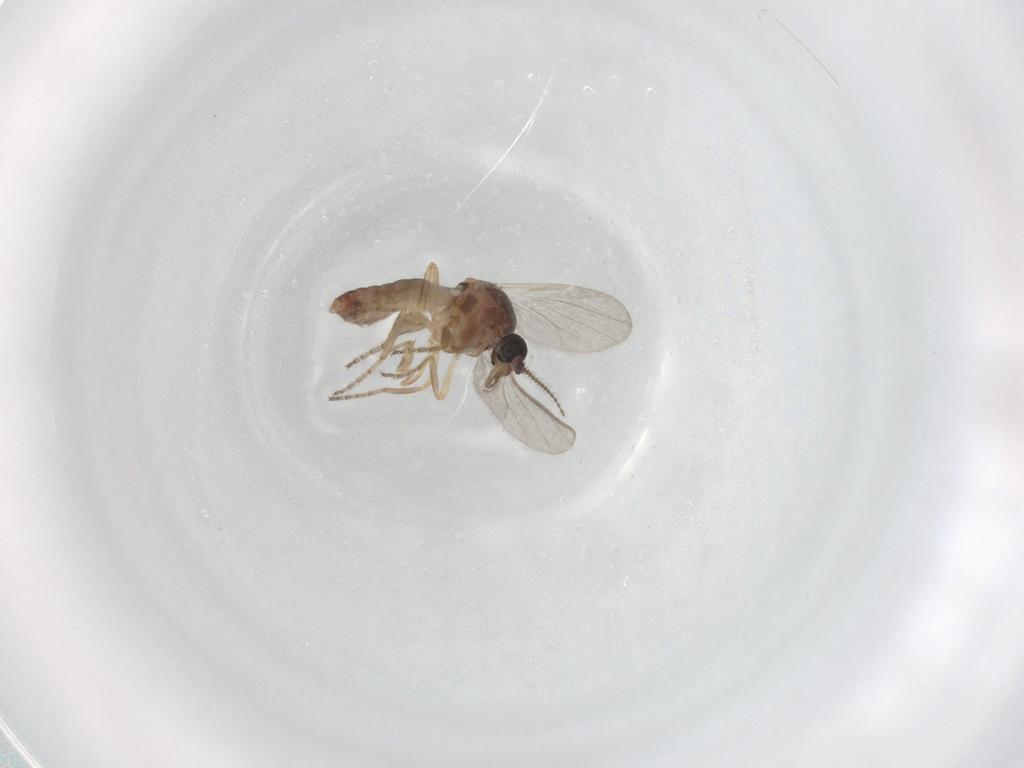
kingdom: Animalia
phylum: Arthropoda
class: Insecta
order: Diptera
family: Ceratopogonidae
